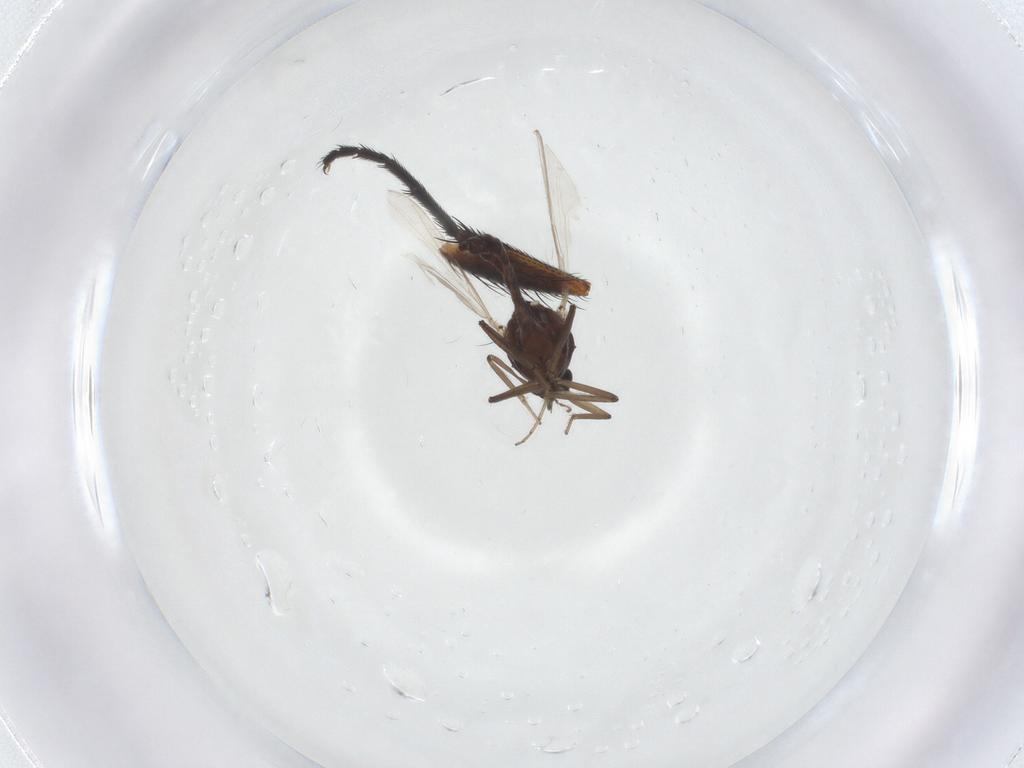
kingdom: Animalia
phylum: Arthropoda
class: Insecta
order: Diptera
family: Ceratopogonidae
